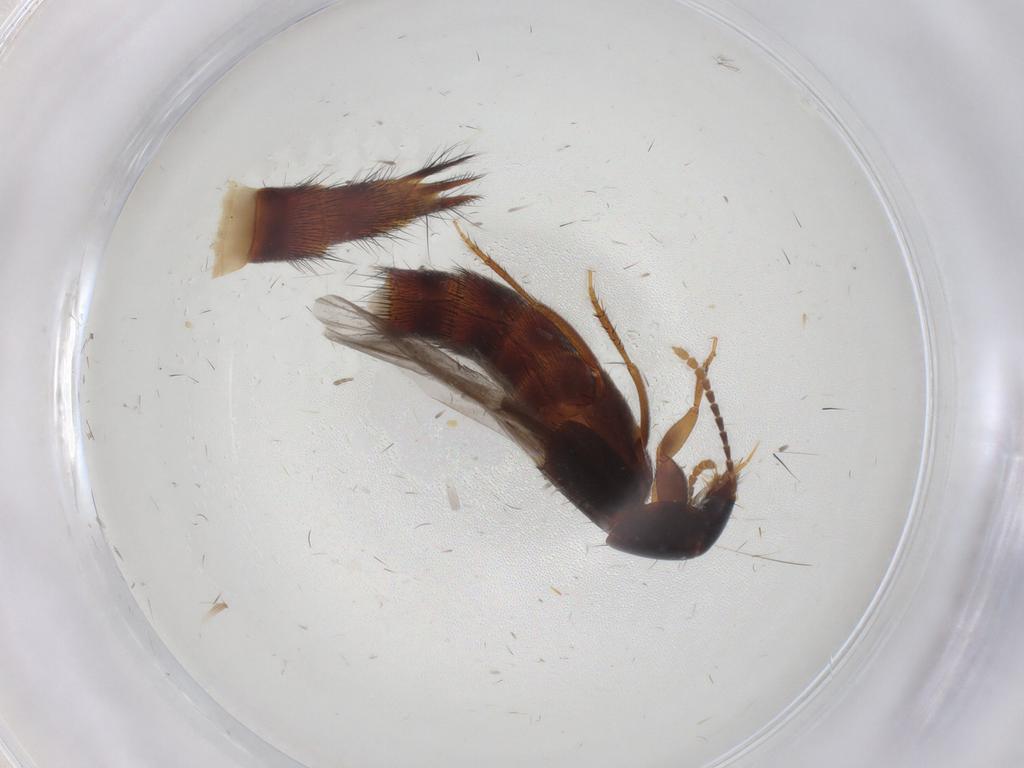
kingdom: Animalia
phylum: Arthropoda
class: Insecta
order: Coleoptera
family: Staphylinidae
